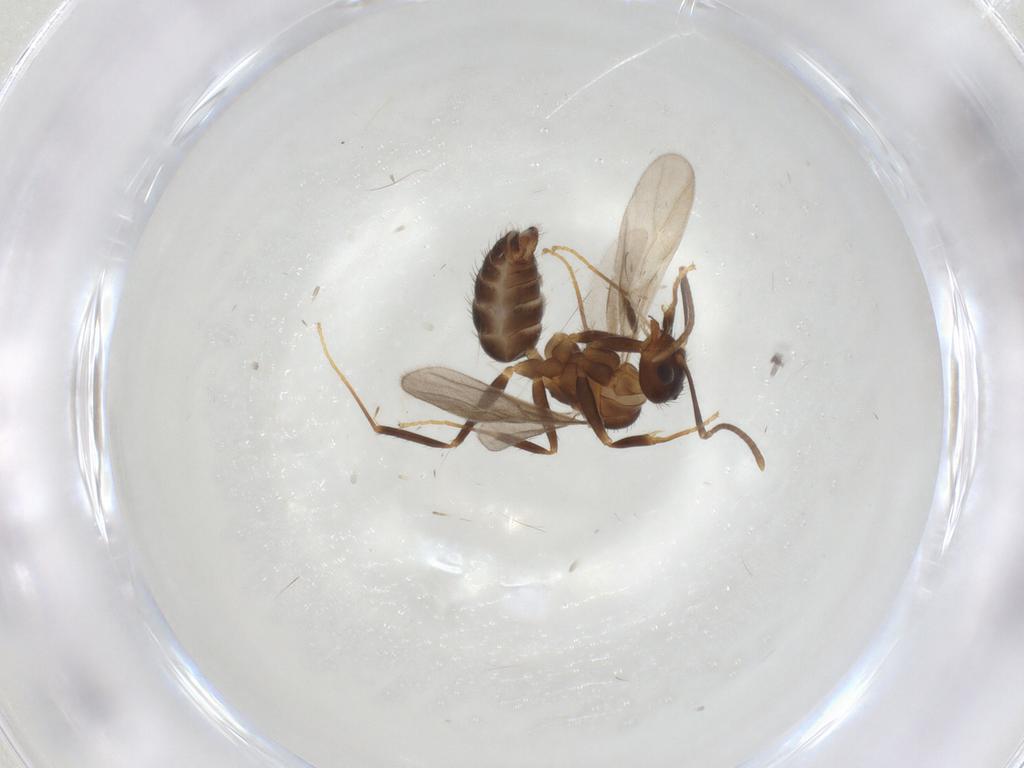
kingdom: Animalia
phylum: Arthropoda
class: Insecta
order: Hymenoptera
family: Formicidae
